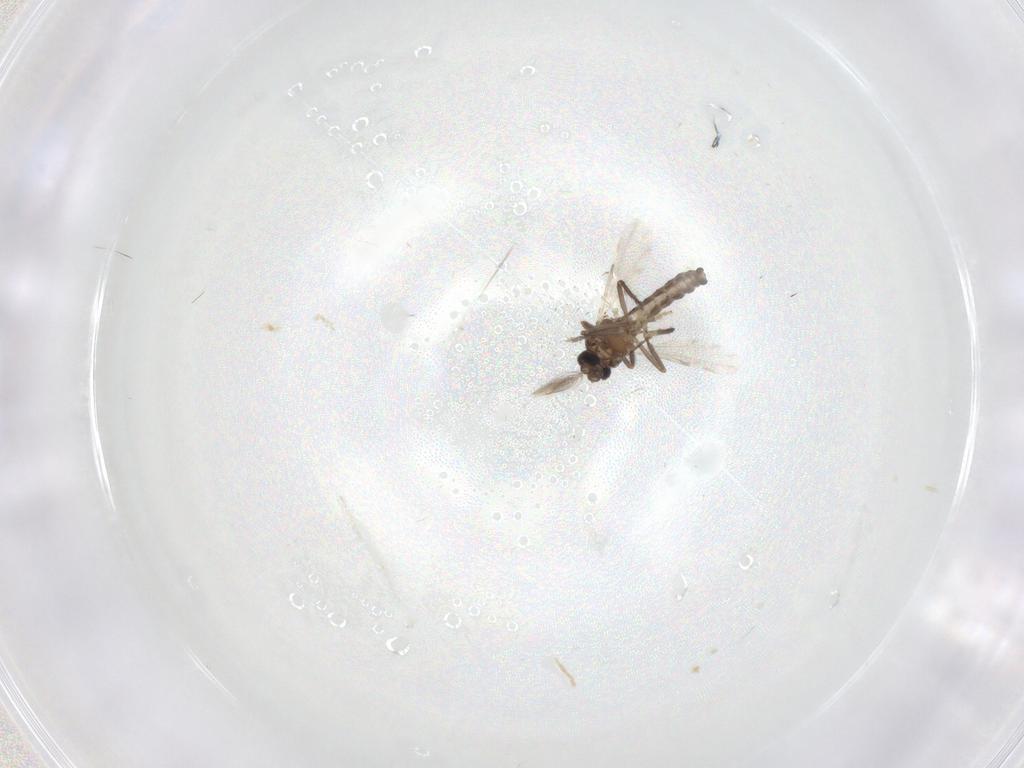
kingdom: Animalia
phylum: Arthropoda
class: Insecta
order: Diptera
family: Ceratopogonidae
